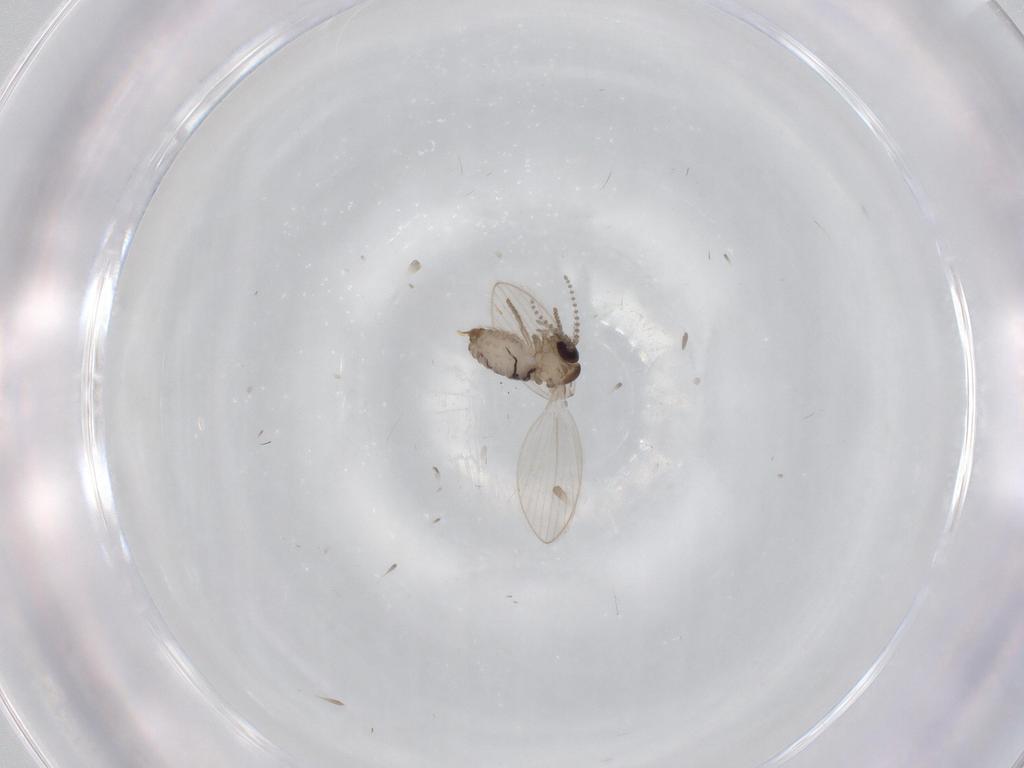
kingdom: Animalia
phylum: Arthropoda
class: Insecta
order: Diptera
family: Psychodidae
